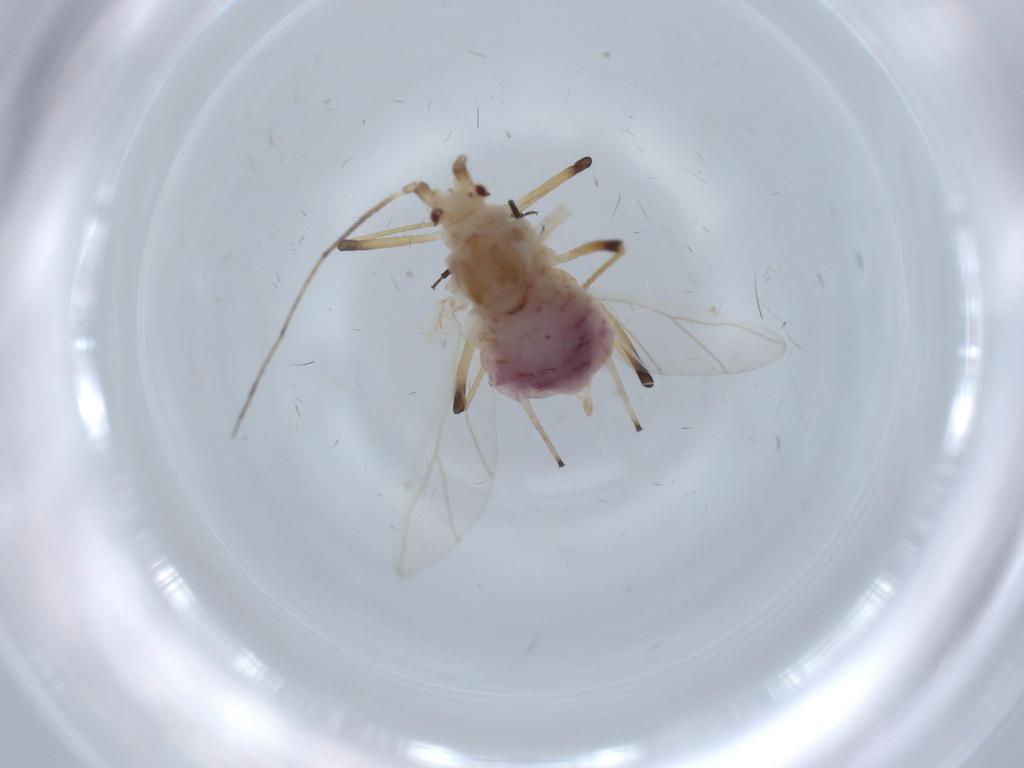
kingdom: Animalia
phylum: Arthropoda
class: Insecta
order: Hemiptera
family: Aphididae
